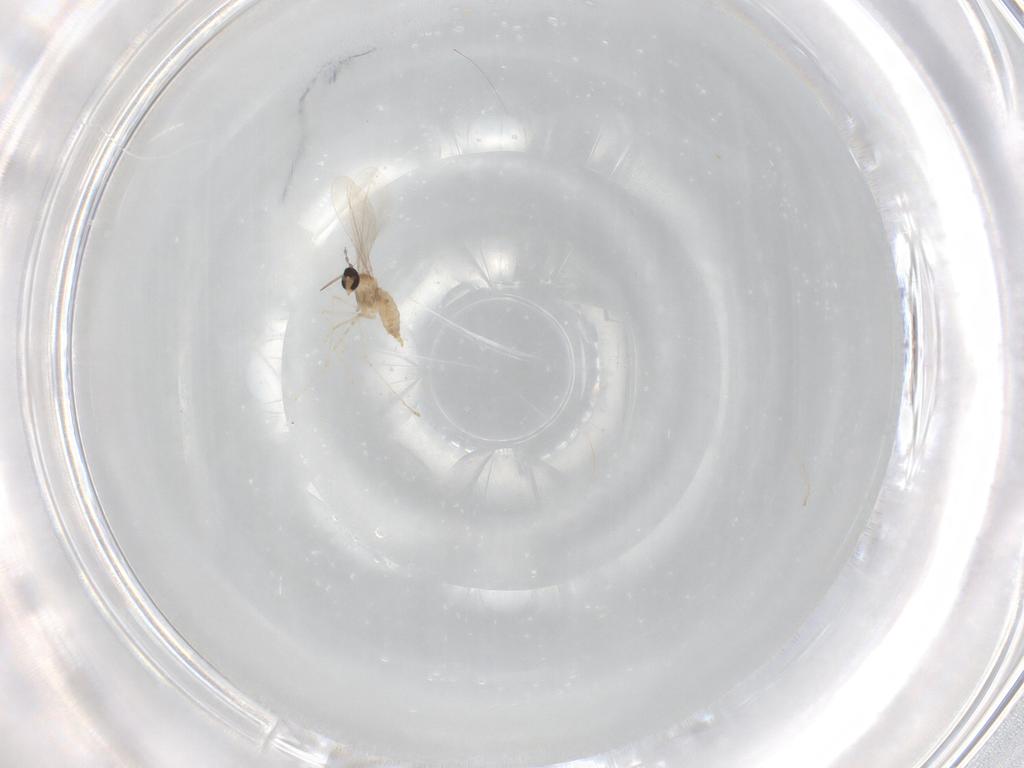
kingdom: Animalia
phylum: Arthropoda
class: Insecta
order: Diptera
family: Cecidomyiidae
